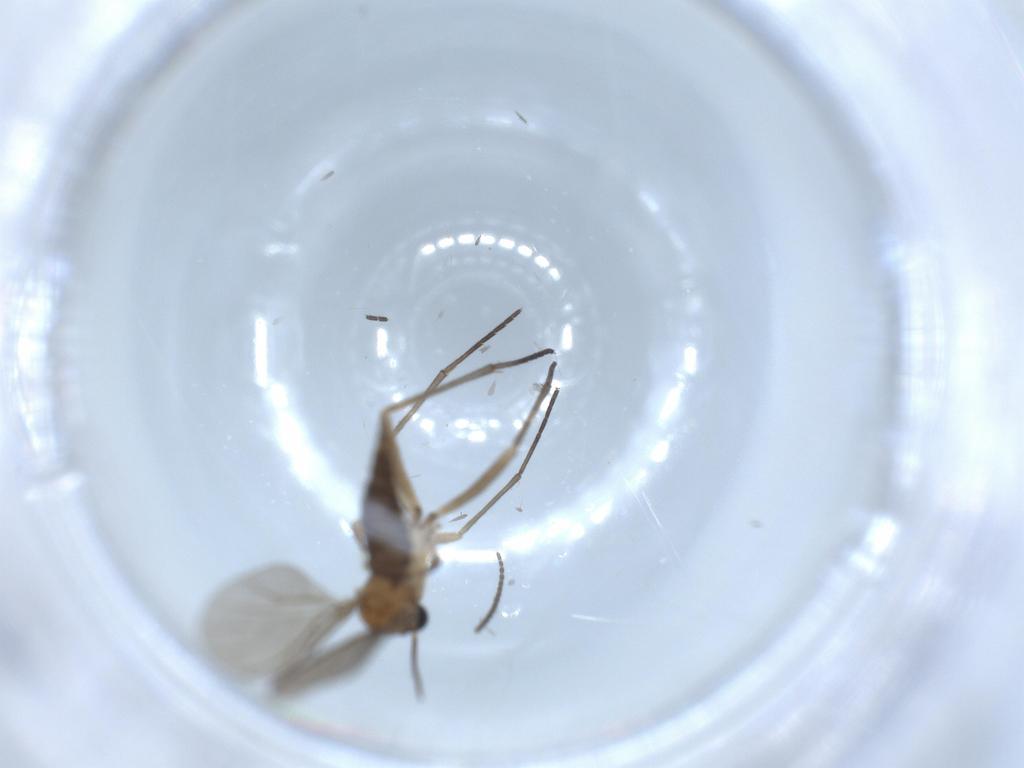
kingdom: Animalia
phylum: Arthropoda
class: Insecta
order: Diptera
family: Sciaridae
